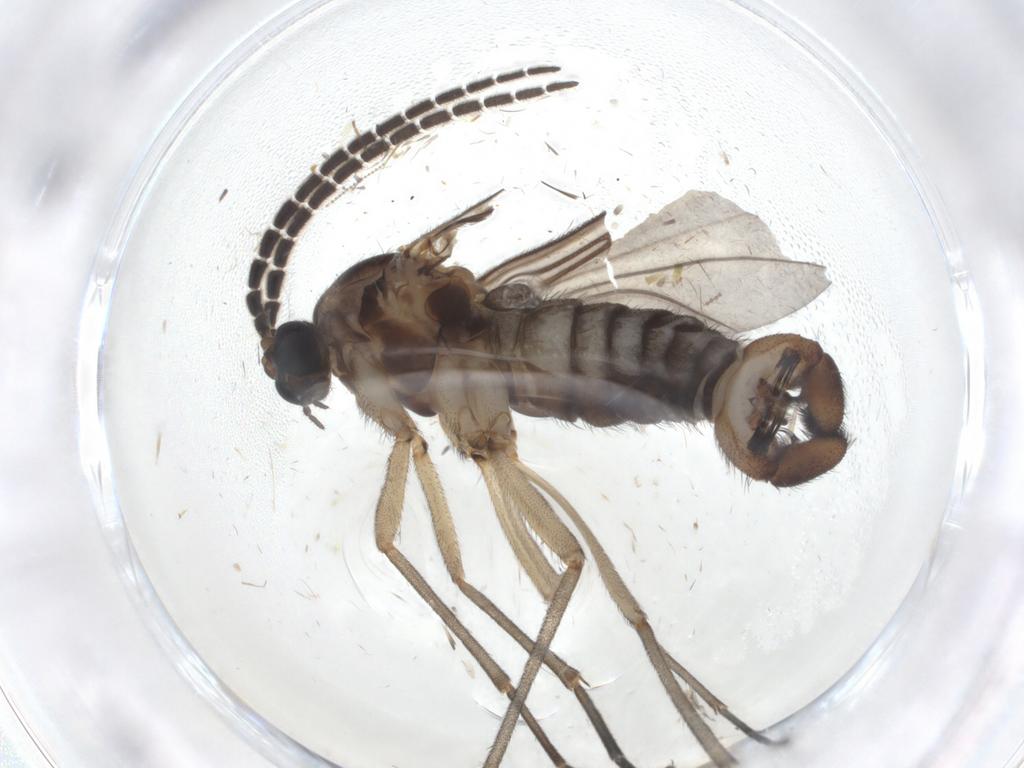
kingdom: Animalia
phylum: Arthropoda
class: Insecta
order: Diptera
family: Sciaridae
